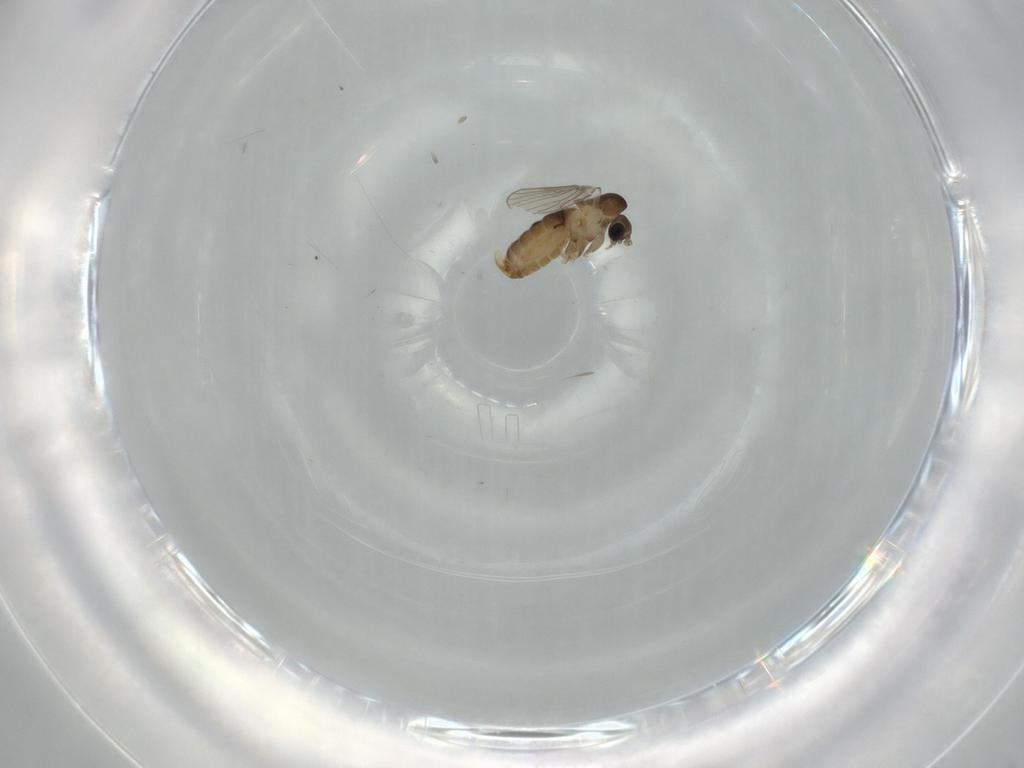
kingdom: Animalia
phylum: Arthropoda
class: Insecta
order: Diptera
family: Psychodidae
